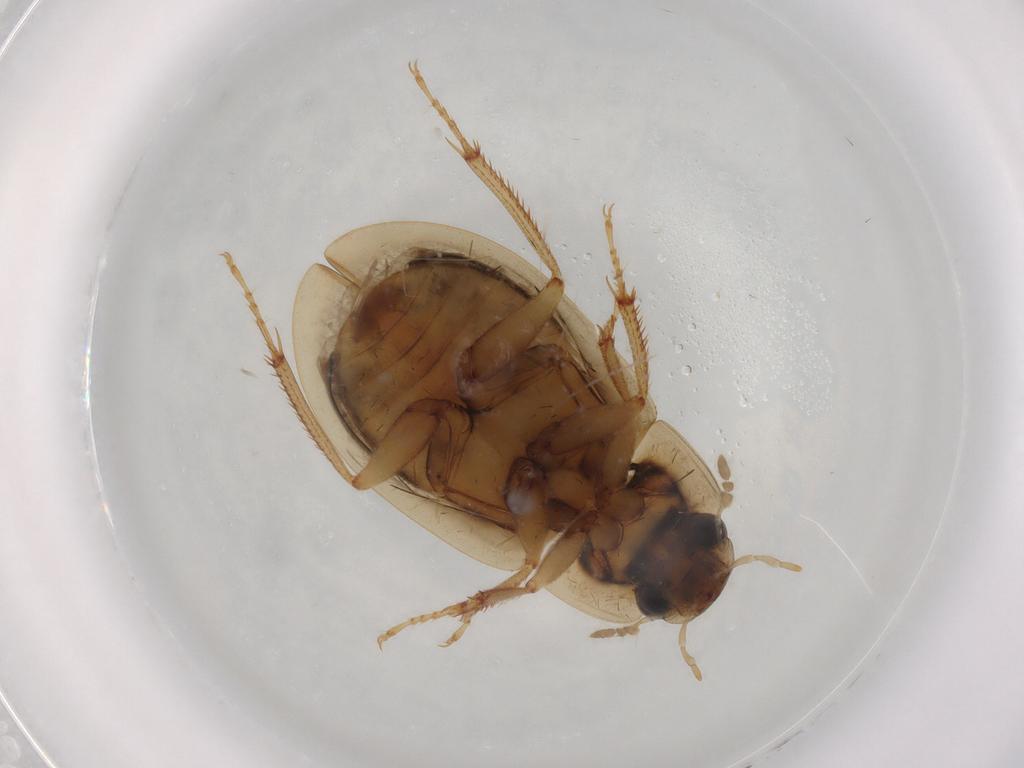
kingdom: Animalia
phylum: Arthropoda
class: Insecta
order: Coleoptera
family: Hydrophilidae
